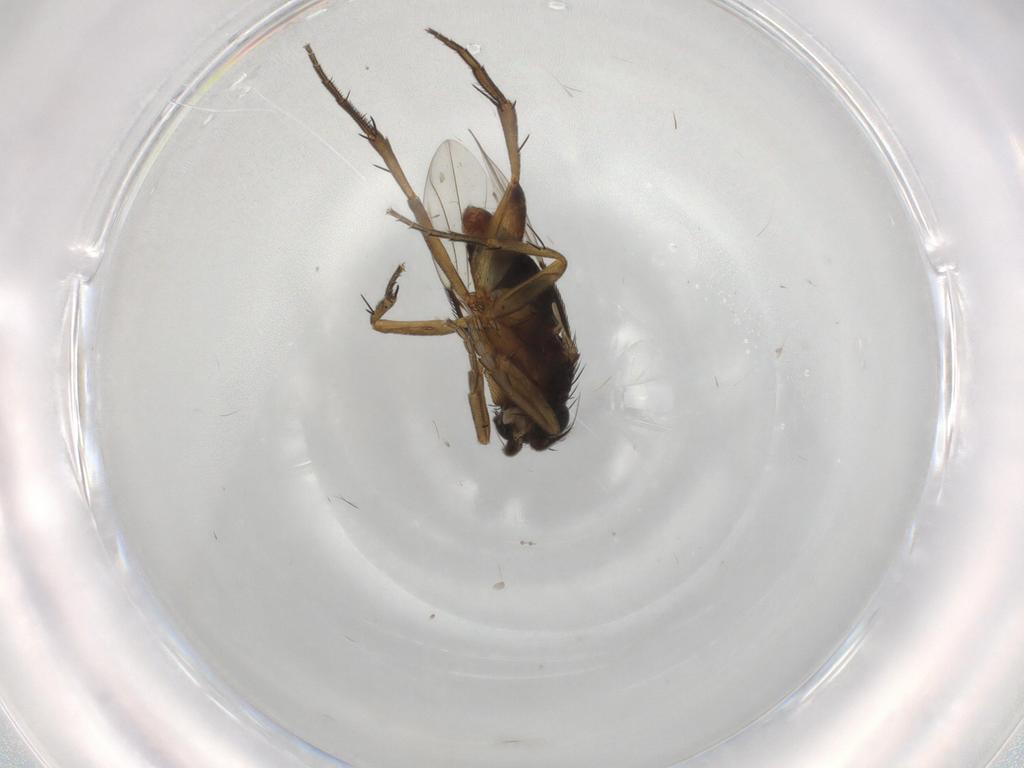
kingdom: Animalia
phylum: Arthropoda
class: Insecta
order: Diptera
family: Phoridae
